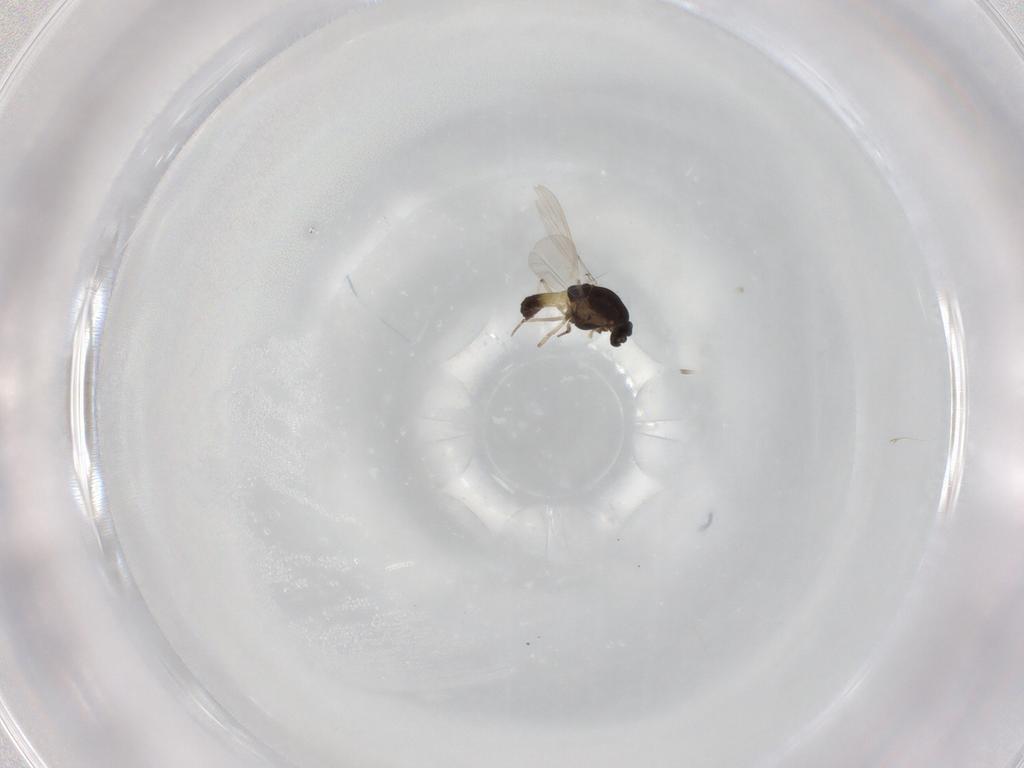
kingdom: Animalia
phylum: Arthropoda
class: Insecta
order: Diptera
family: Chironomidae
